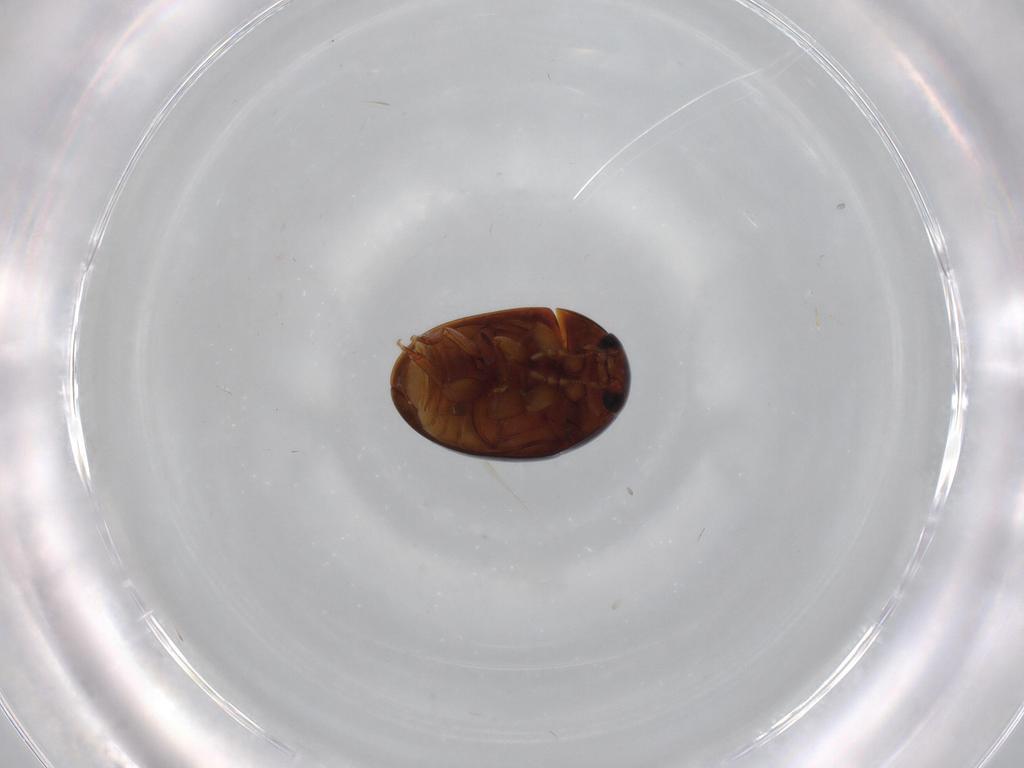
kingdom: Animalia
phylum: Arthropoda
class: Insecta
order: Coleoptera
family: Phalacridae
